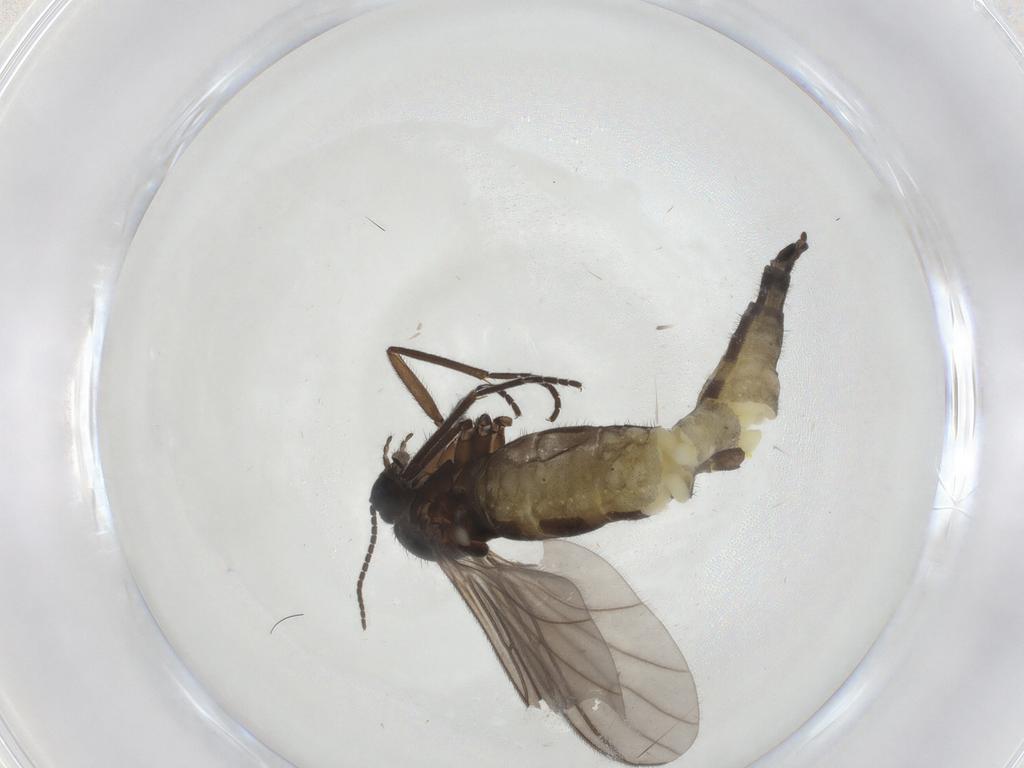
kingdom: Animalia
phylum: Arthropoda
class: Insecta
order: Diptera
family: Sciaridae
